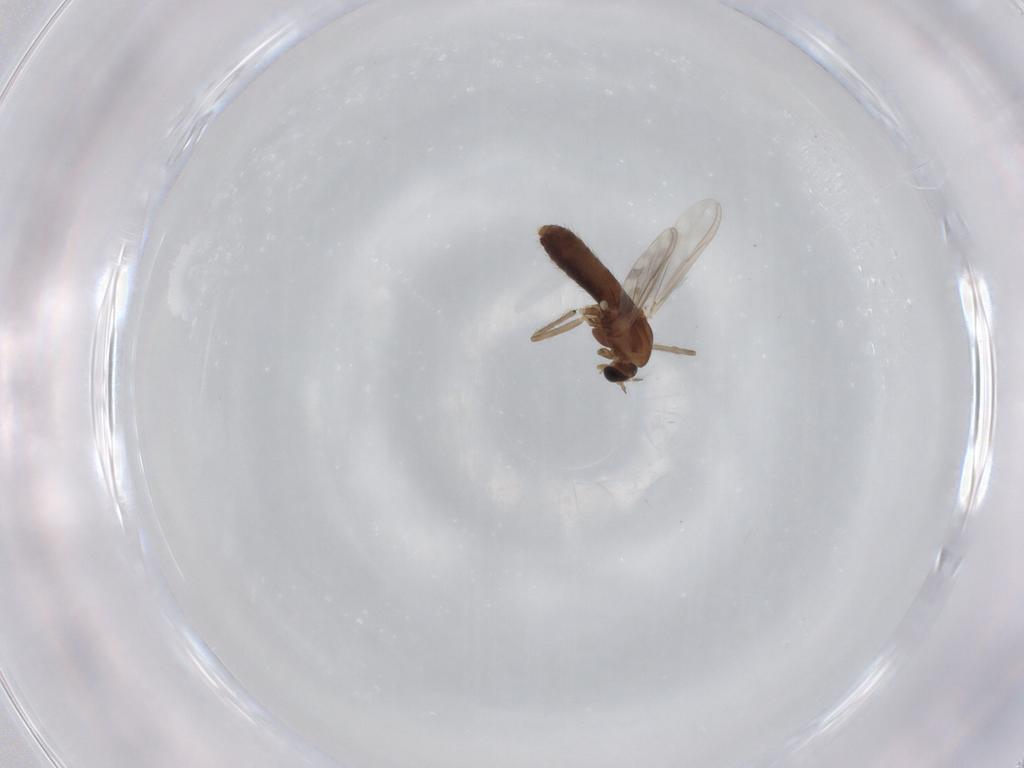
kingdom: Animalia
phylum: Arthropoda
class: Insecta
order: Diptera
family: Chironomidae
